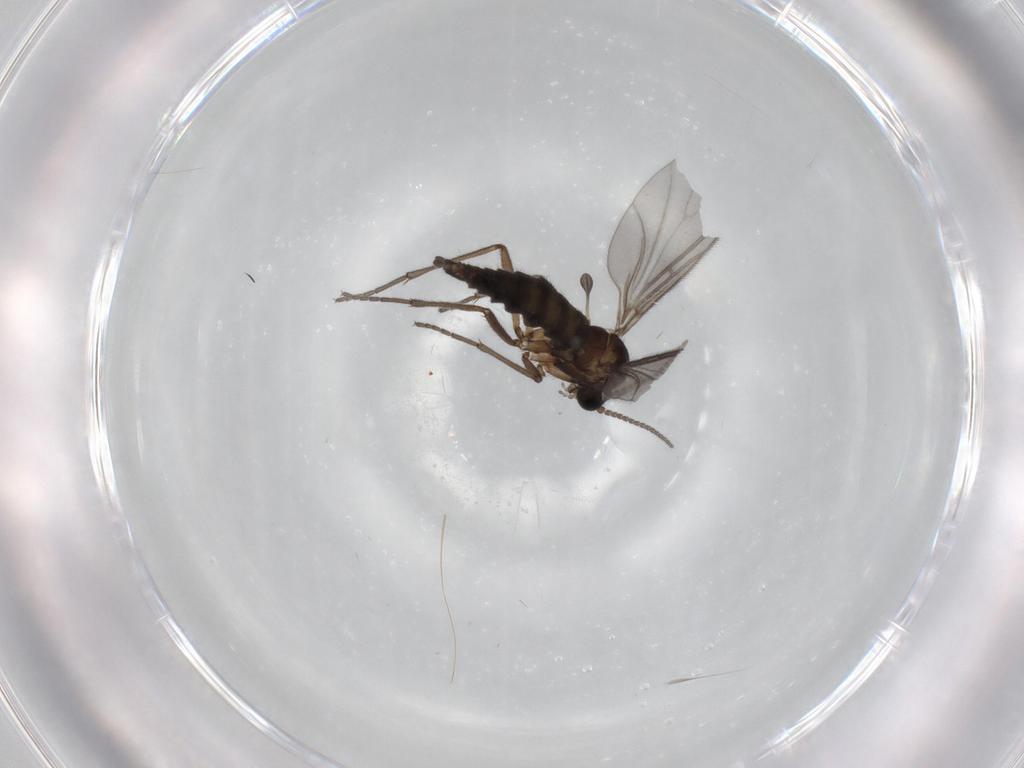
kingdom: Animalia
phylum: Arthropoda
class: Insecta
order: Diptera
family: Sciaridae
